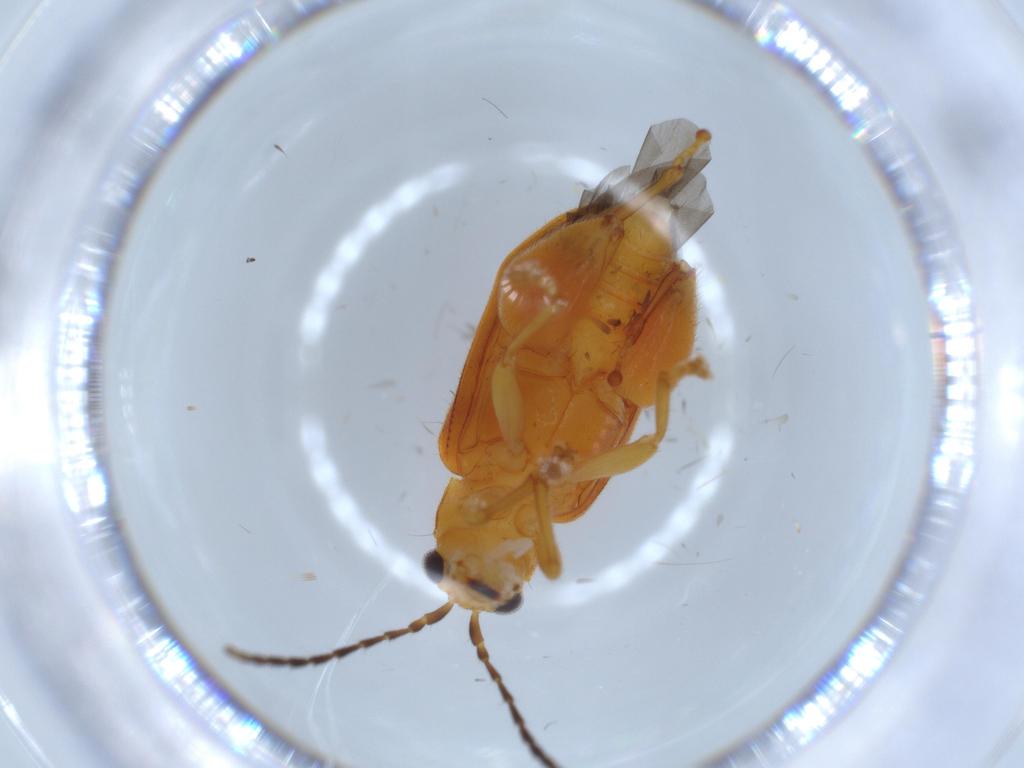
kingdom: Animalia
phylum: Arthropoda
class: Insecta
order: Coleoptera
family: Chrysomelidae
